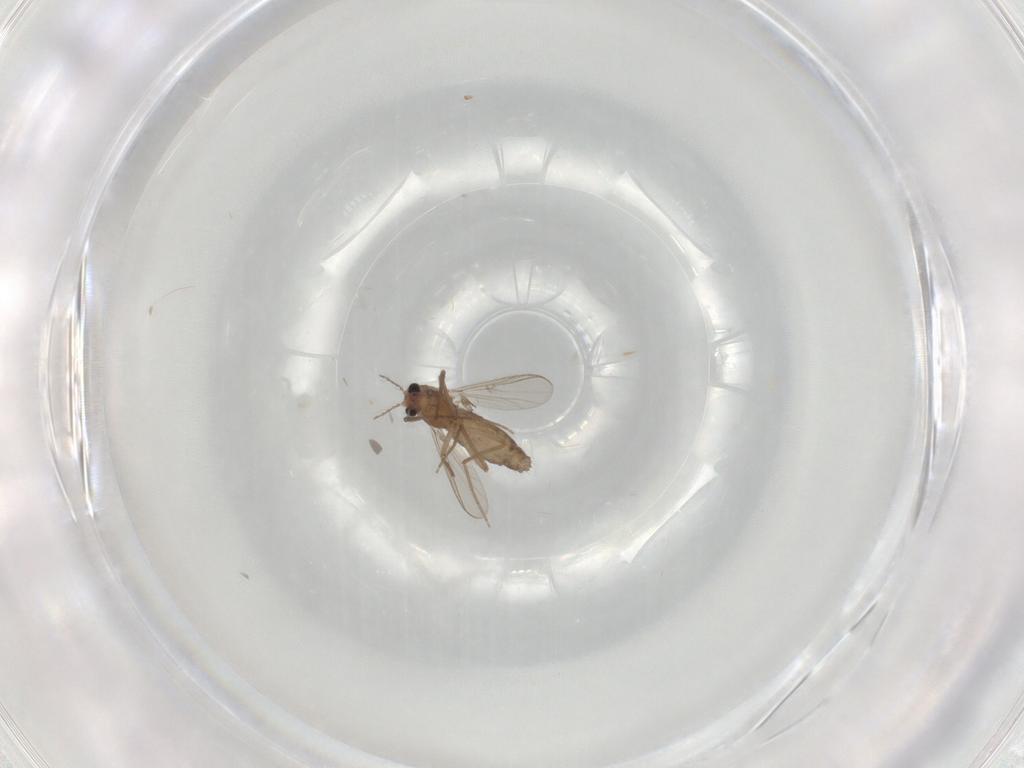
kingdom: Animalia
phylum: Arthropoda
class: Insecta
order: Diptera
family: Chironomidae
